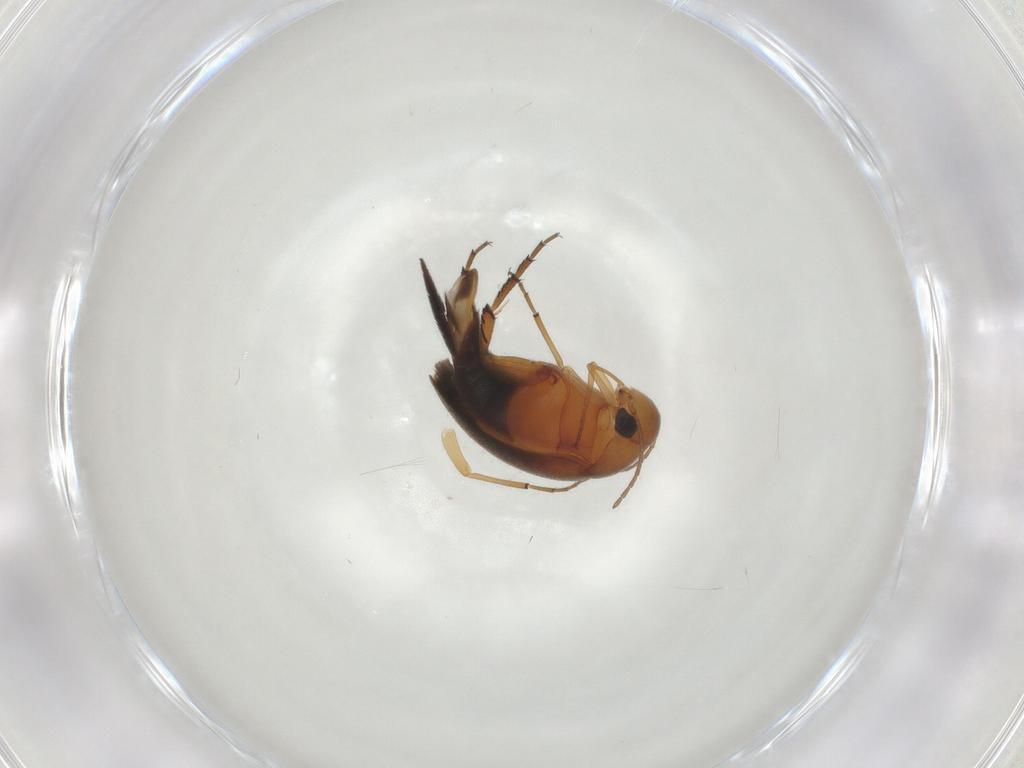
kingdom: Animalia
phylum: Arthropoda
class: Insecta
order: Coleoptera
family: Lampyridae
